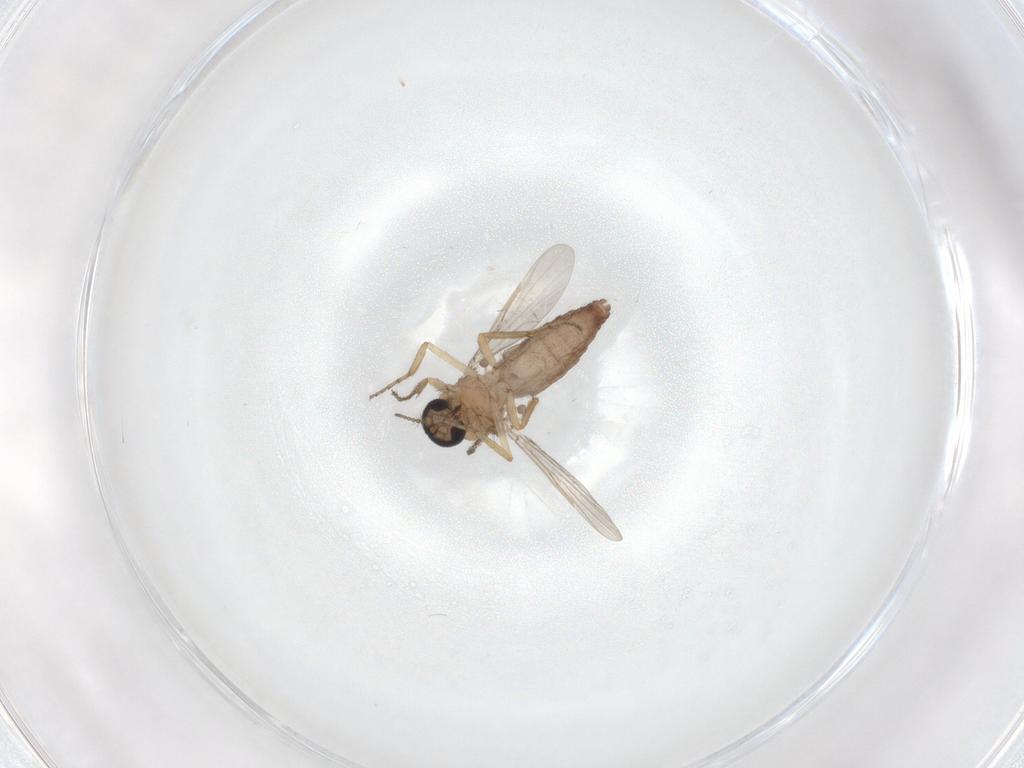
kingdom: Animalia
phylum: Arthropoda
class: Insecta
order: Diptera
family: Ceratopogonidae
